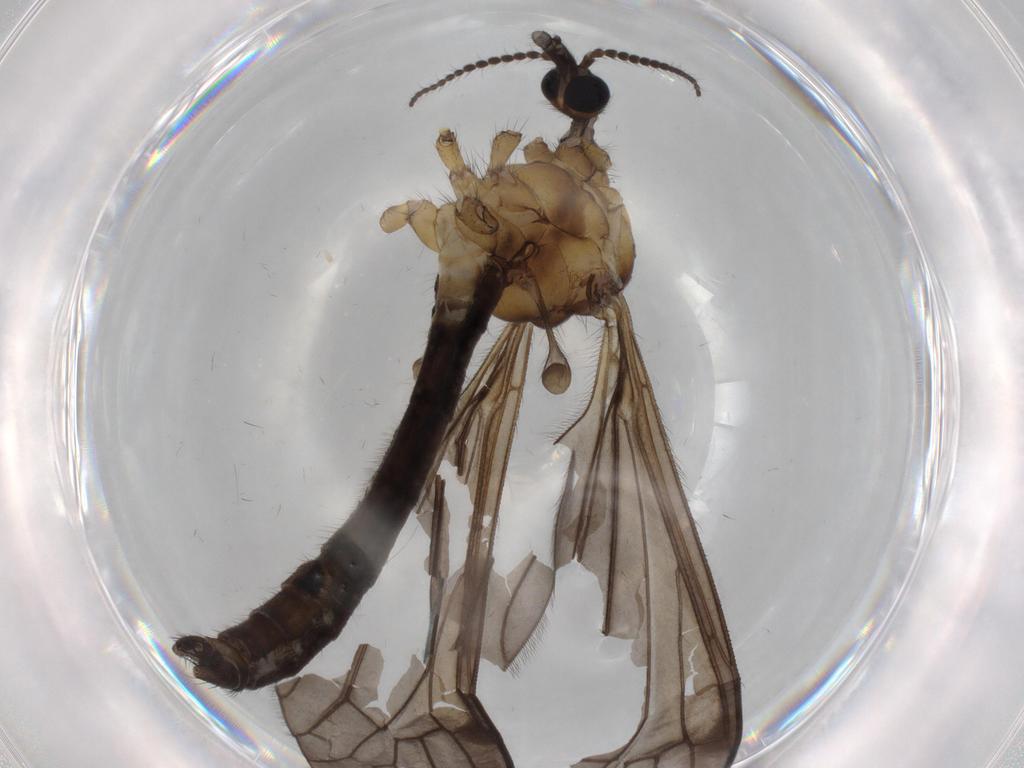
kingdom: Animalia
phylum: Arthropoda
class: Insecta
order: Diptera
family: Limoniidae
